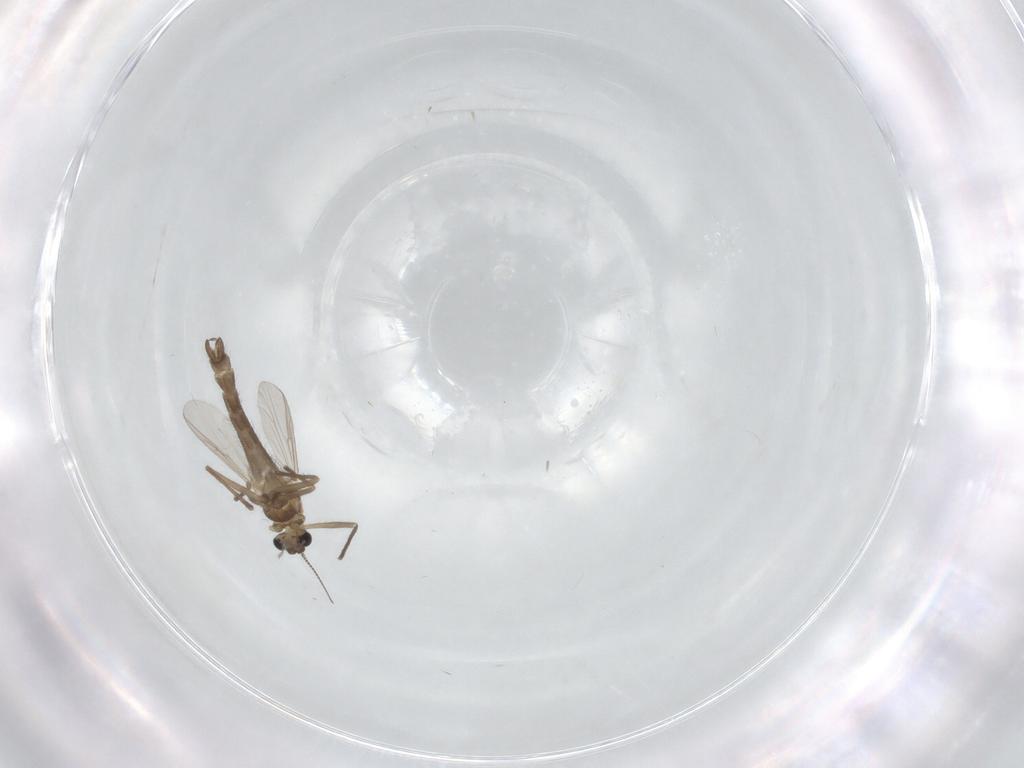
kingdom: Animalia
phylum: Arthropoda
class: Insecta
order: Diptera
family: Chironomidae
